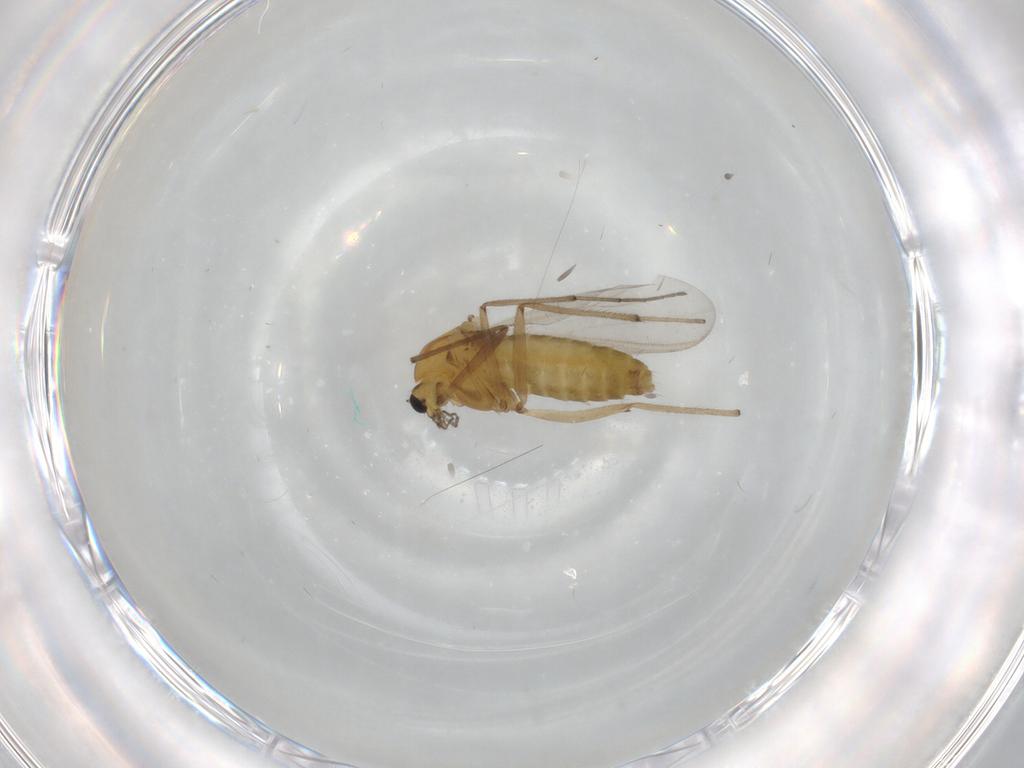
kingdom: Animalia
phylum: Arthropoda
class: Insecta
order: Diptera
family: Chironomidae
